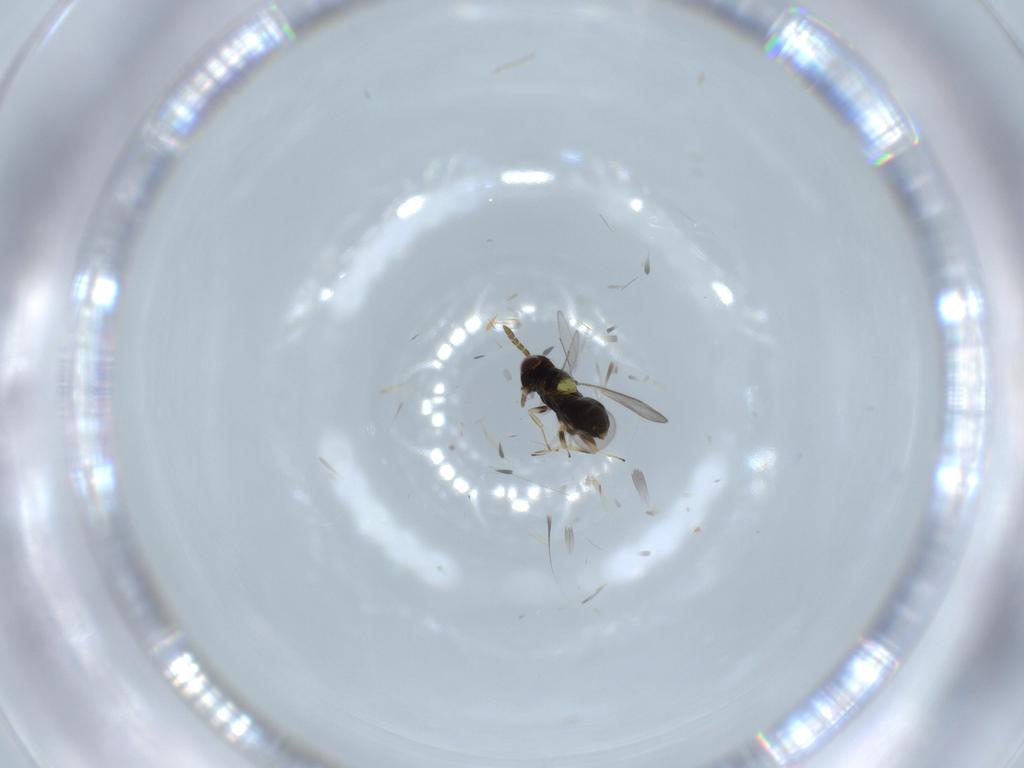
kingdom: Animalia
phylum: Arthropoda
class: Insecta
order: Hymenoptera
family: Aphelinidae
